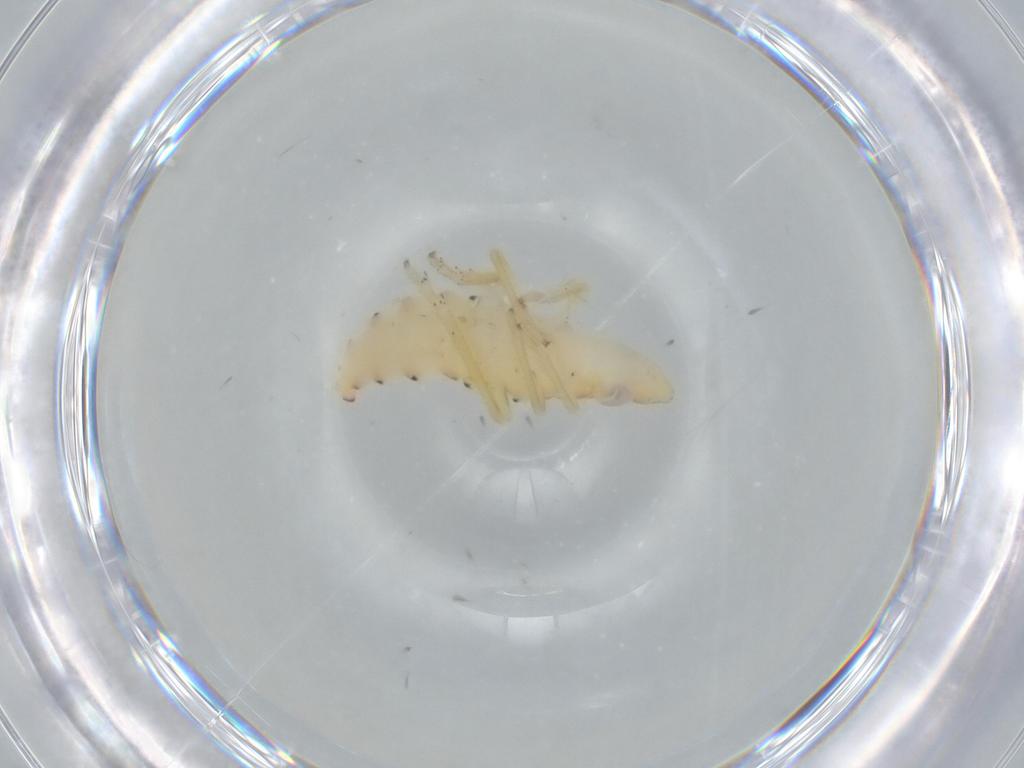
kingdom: Animalia
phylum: Arthropoda
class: Insecta
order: Hemiptera
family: Tropiduchidae
